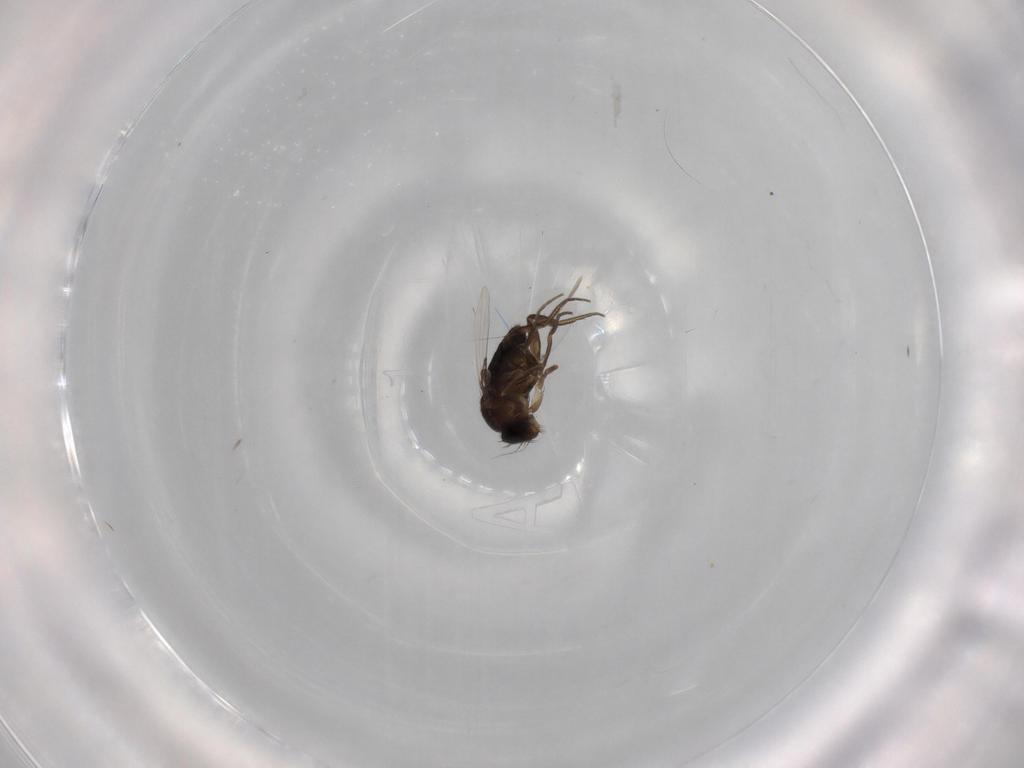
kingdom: Animalia
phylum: Arthropoda
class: Insecta
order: Diptera
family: Phoridae
